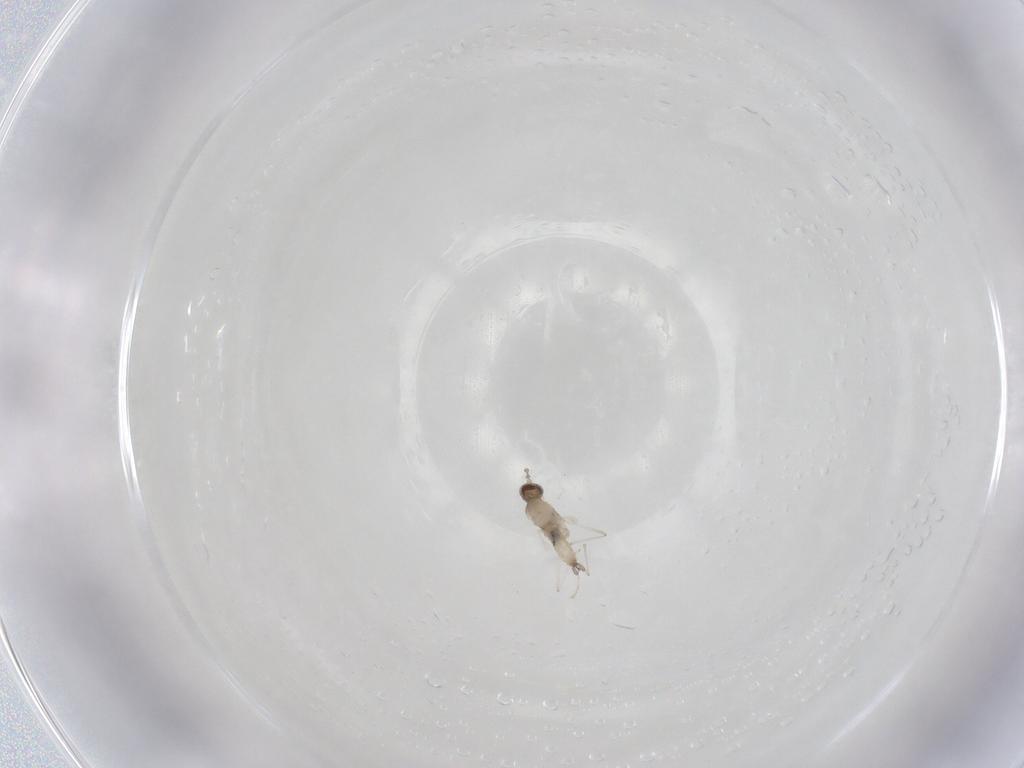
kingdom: Animalia
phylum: Arthropoda
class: Insecta
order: Diptera
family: Cecidomyiidae
